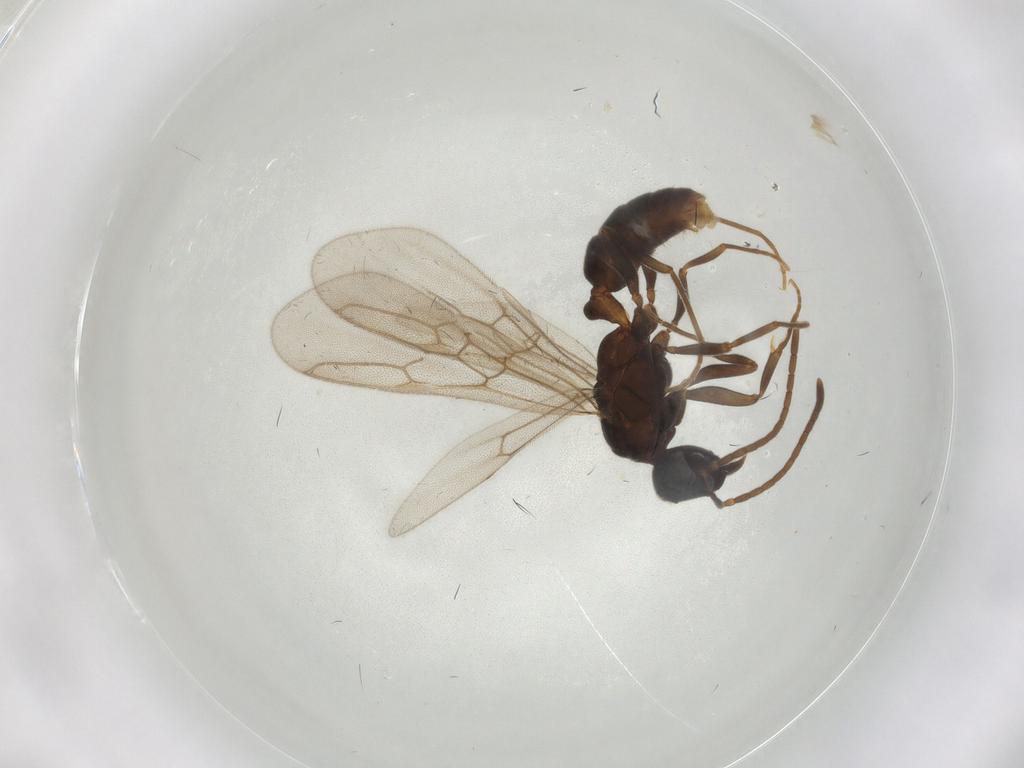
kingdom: Animalia
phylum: Arthropoda
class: Insecta
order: Hymenoptera
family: Formicidae
